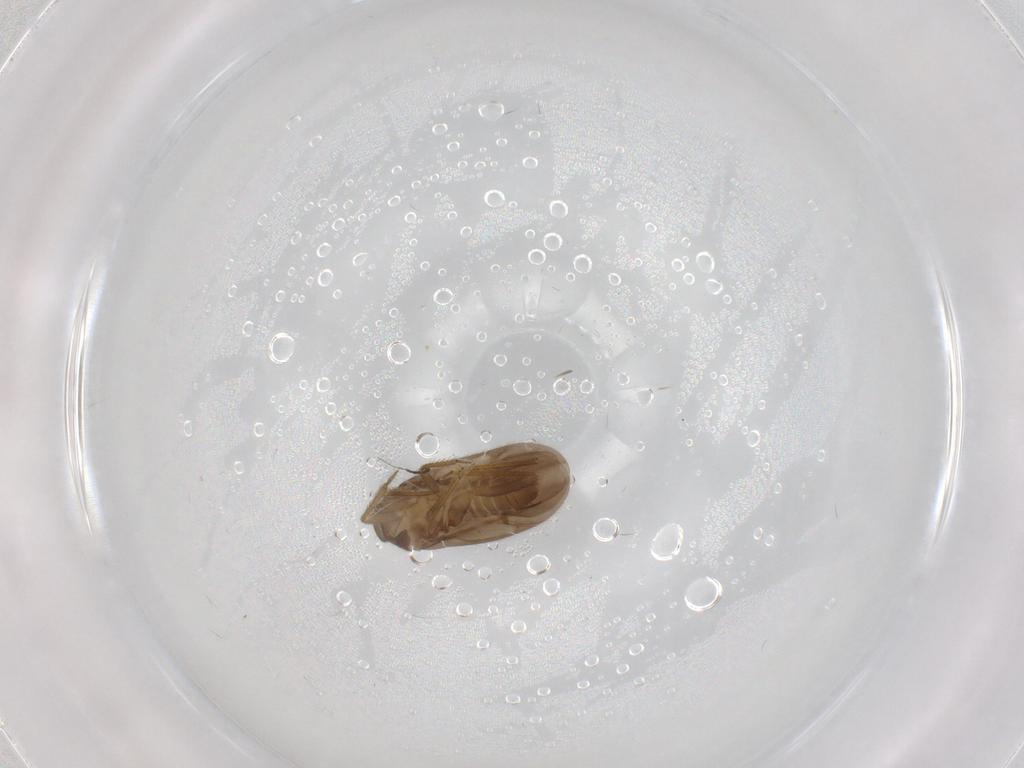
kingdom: Animalia
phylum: Arthropoda
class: Insecta
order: Hemiptera
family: Ceratocombidae
